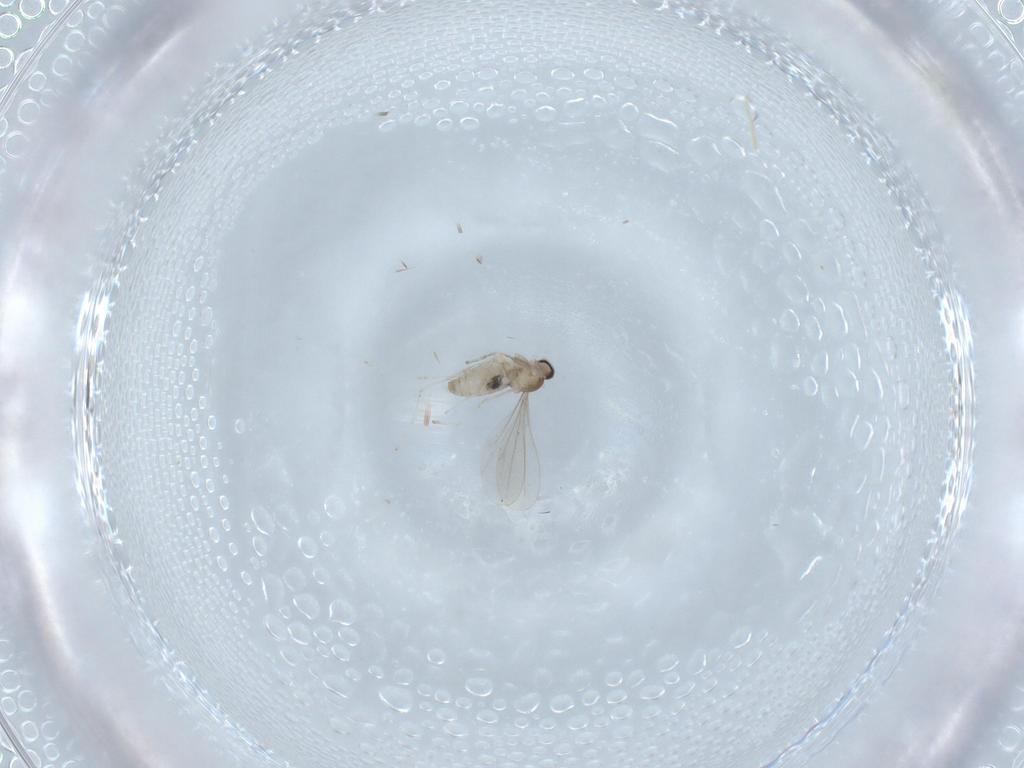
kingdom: Animalia
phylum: Arthropoda
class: Insecta
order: Diptera
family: Cecidomyiidae
